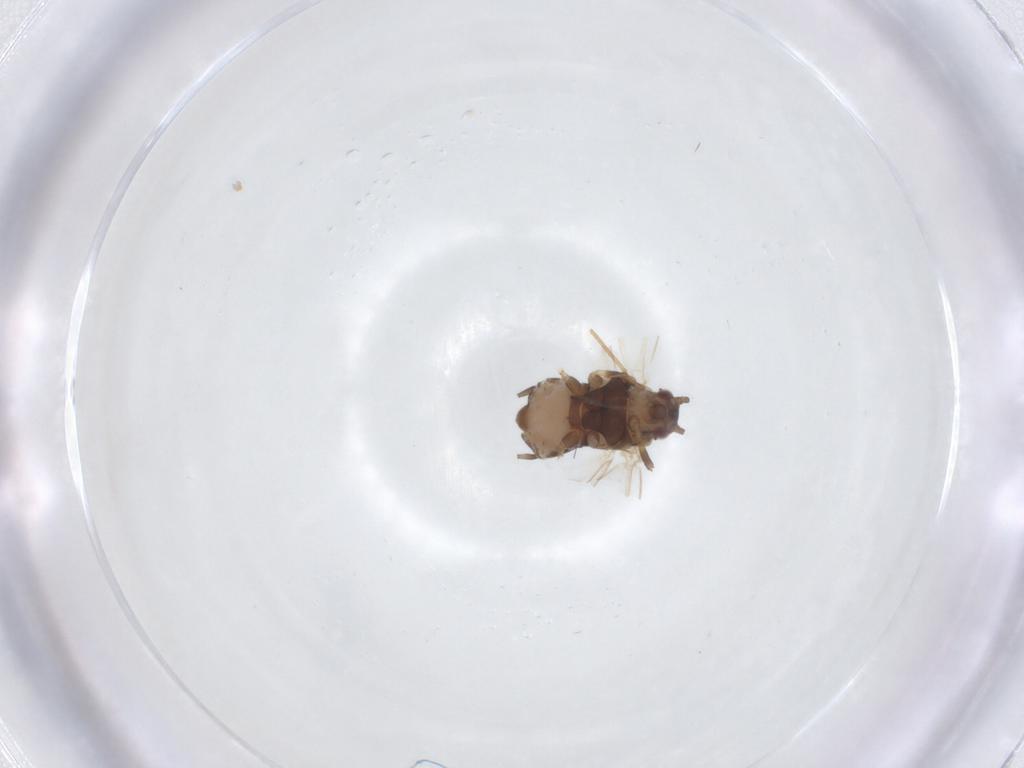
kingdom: Animalia
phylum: Arthropoda
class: Insecta
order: Hemiptera
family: Aphididae
